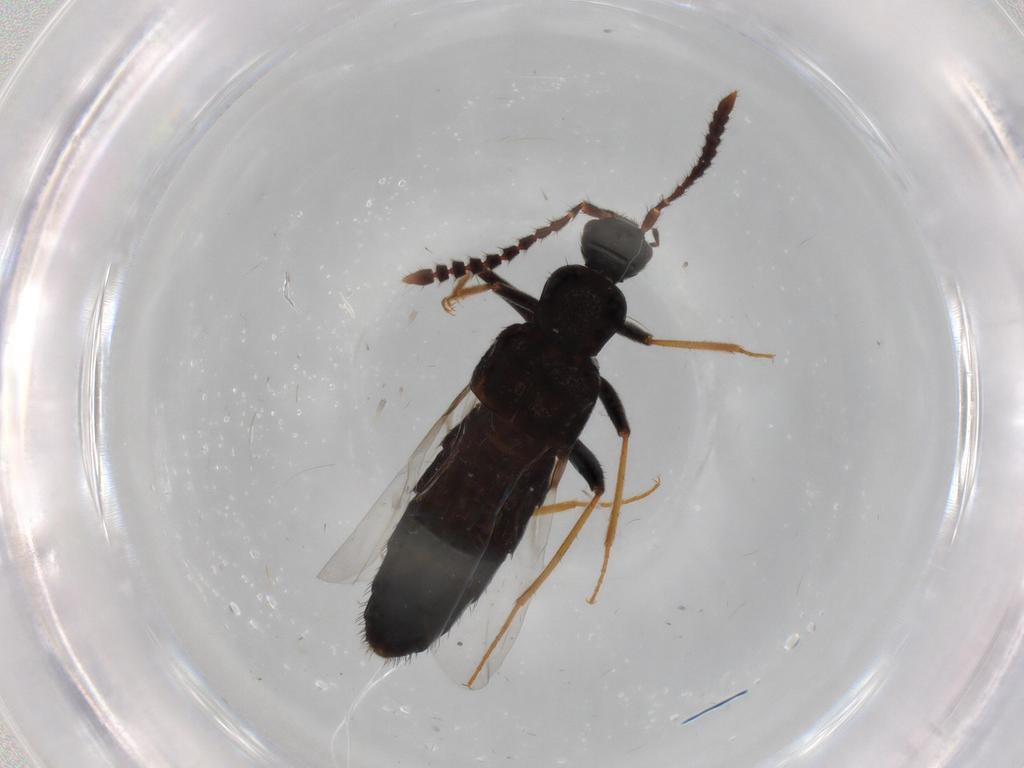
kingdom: Animalia
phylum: Arthropoda
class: Insecta
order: Coleoptera
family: Staphylinidae
